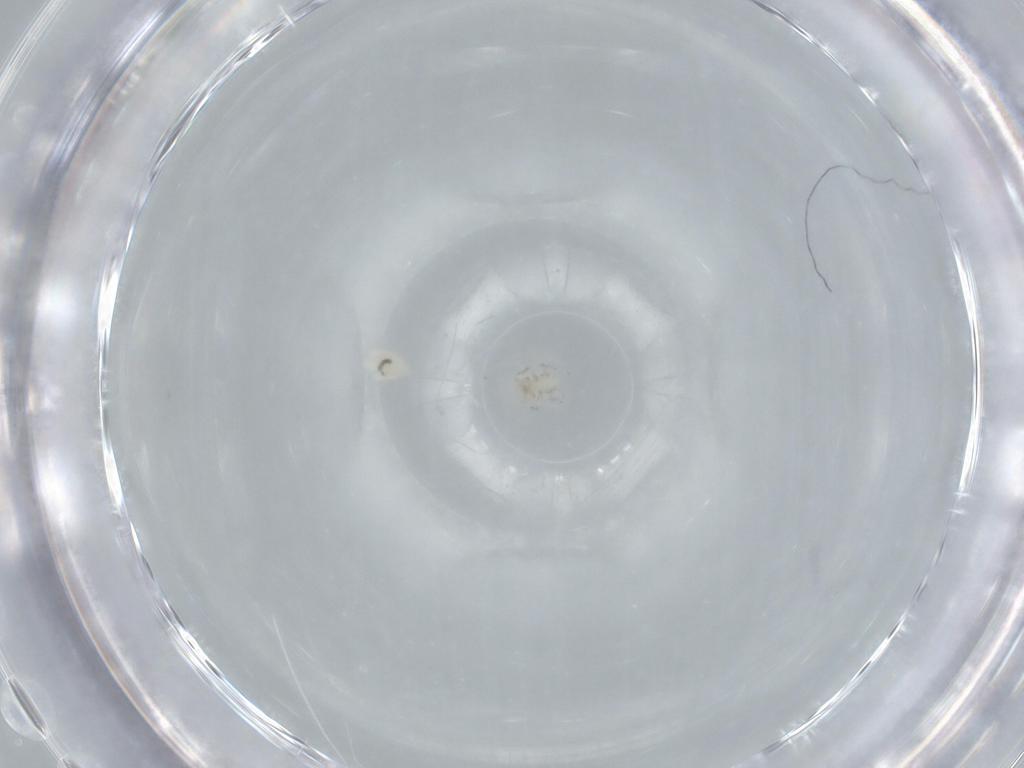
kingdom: Animalia
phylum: Arthropoda
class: Insecta
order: Psocodea
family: Caeciliusidae
